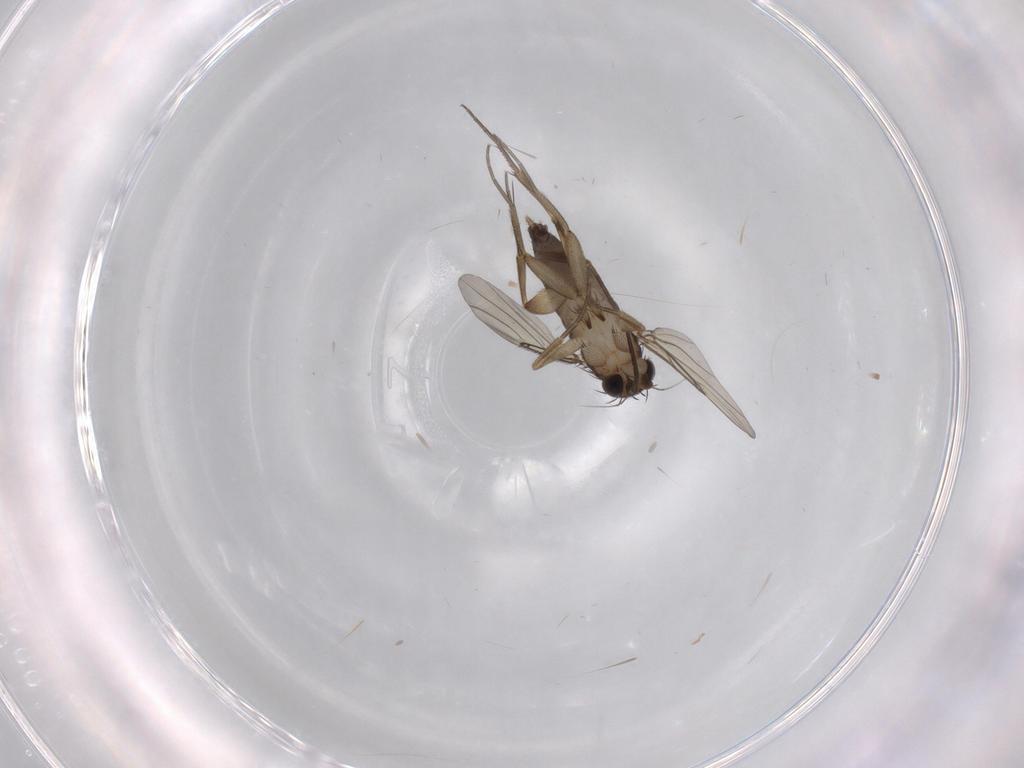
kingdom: Animalia
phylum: Arthropoda
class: Insecta
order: Diptera
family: Phoridae
